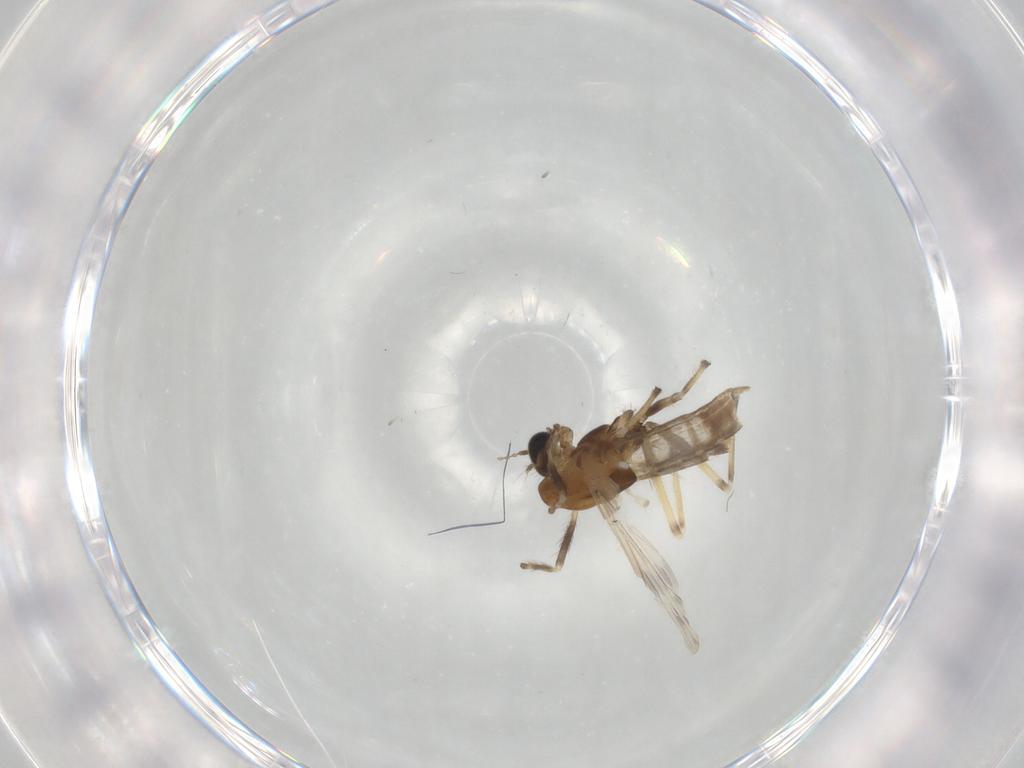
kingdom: Animalia
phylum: Arthropoda
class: Insecta
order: Diptera
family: Chironomidae
